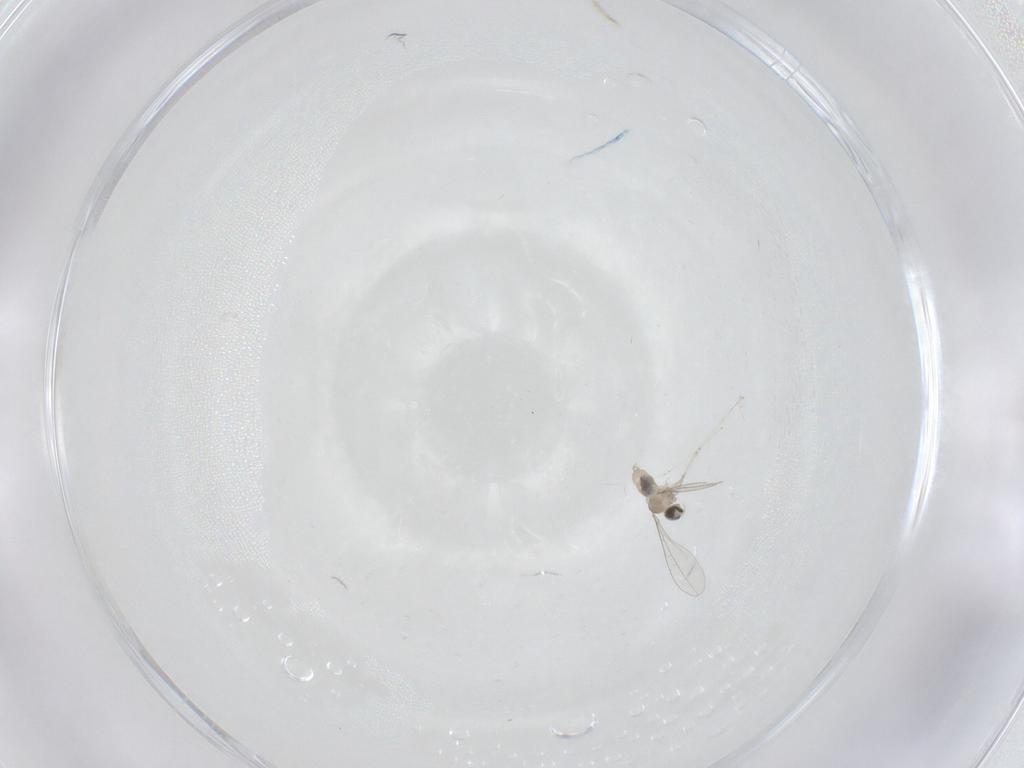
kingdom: Animalia
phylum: Arthropoda
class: Insecta
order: Diptera
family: Cecidomyiidae
